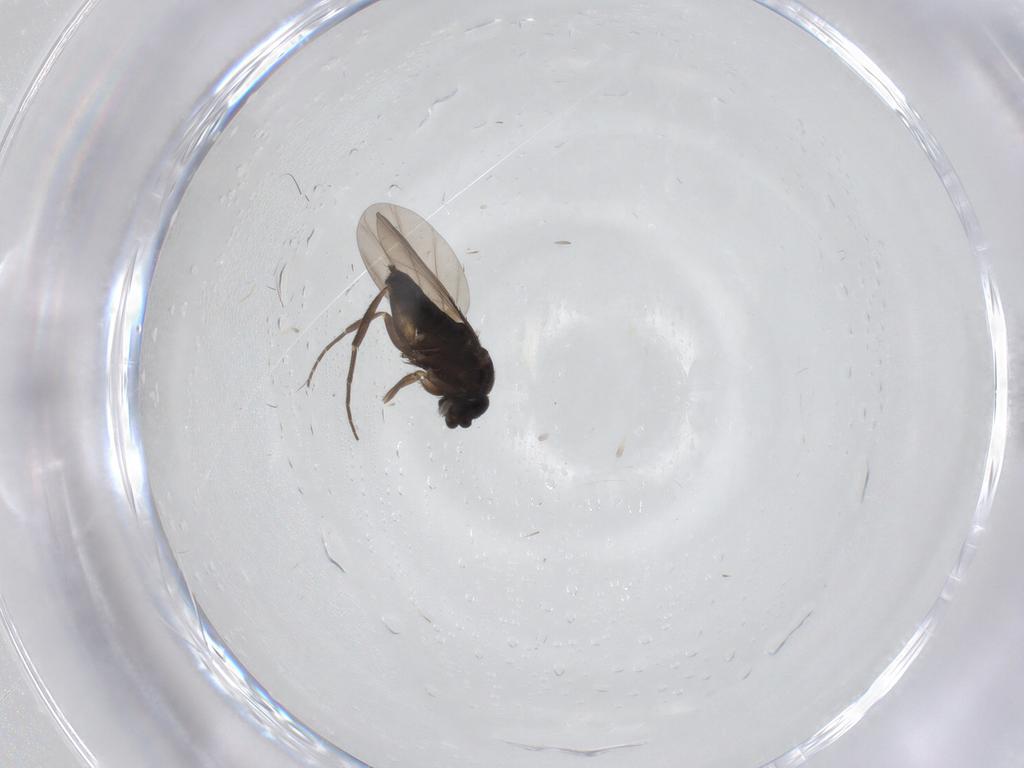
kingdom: Animalia
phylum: Arthropoda
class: Insecta
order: Diptera
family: Phoridae
